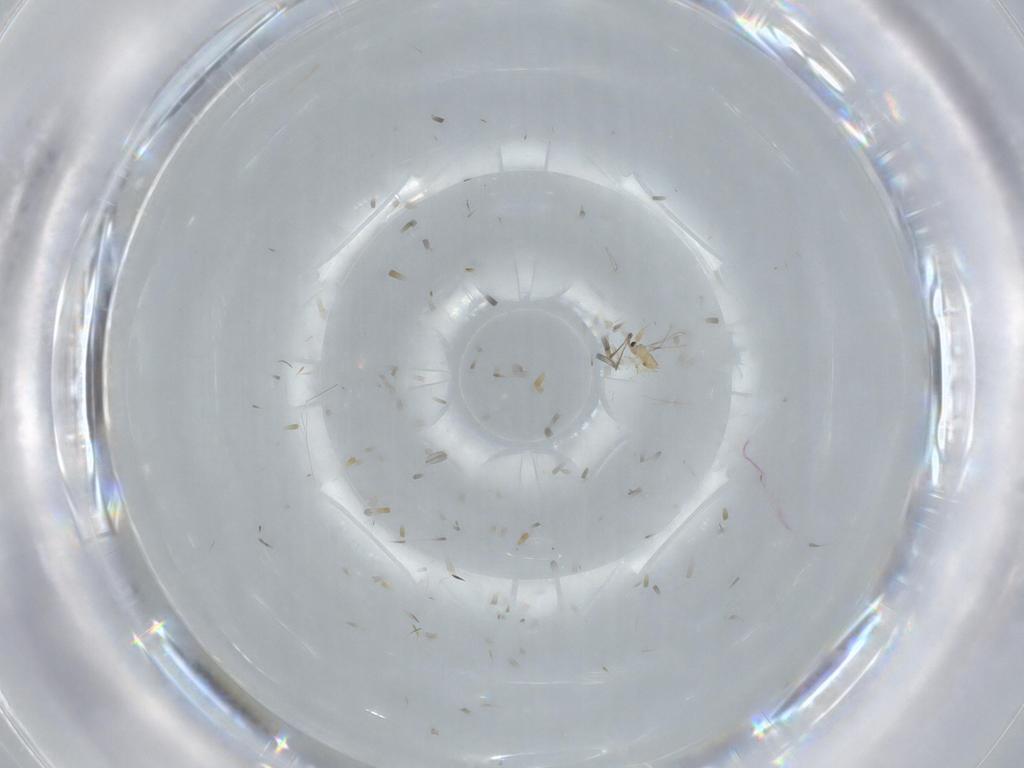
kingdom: Animalia
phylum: Arthropoda
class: Insecta
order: Hymenoptera
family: Mymaridae
